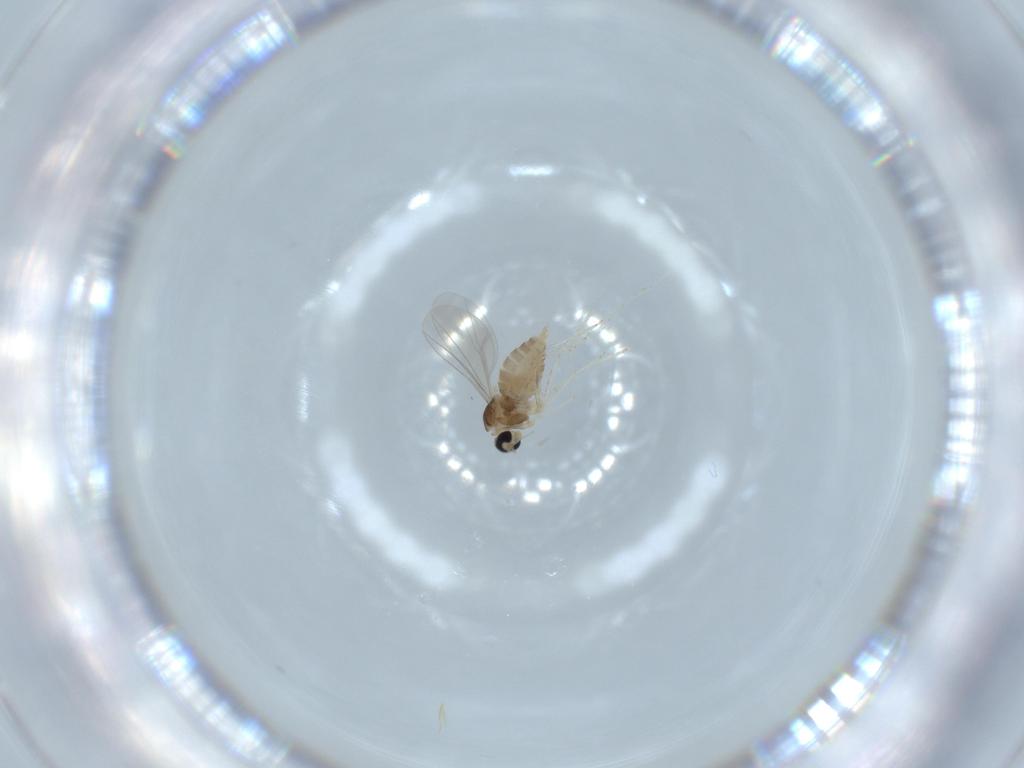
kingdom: Animalia
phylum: Arthropoda
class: Insecta
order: Diptera
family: Cecidomyiidae
